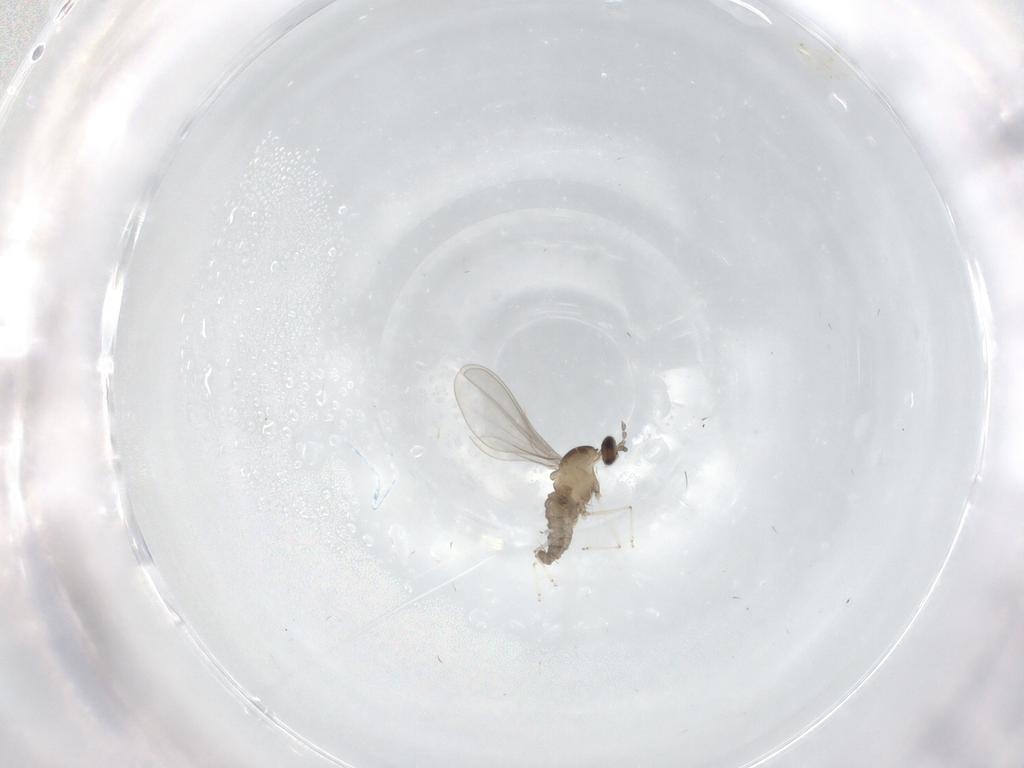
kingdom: Animalia
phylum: Arthropoda
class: Insecta
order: Diptera
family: Cecidomyiidae
